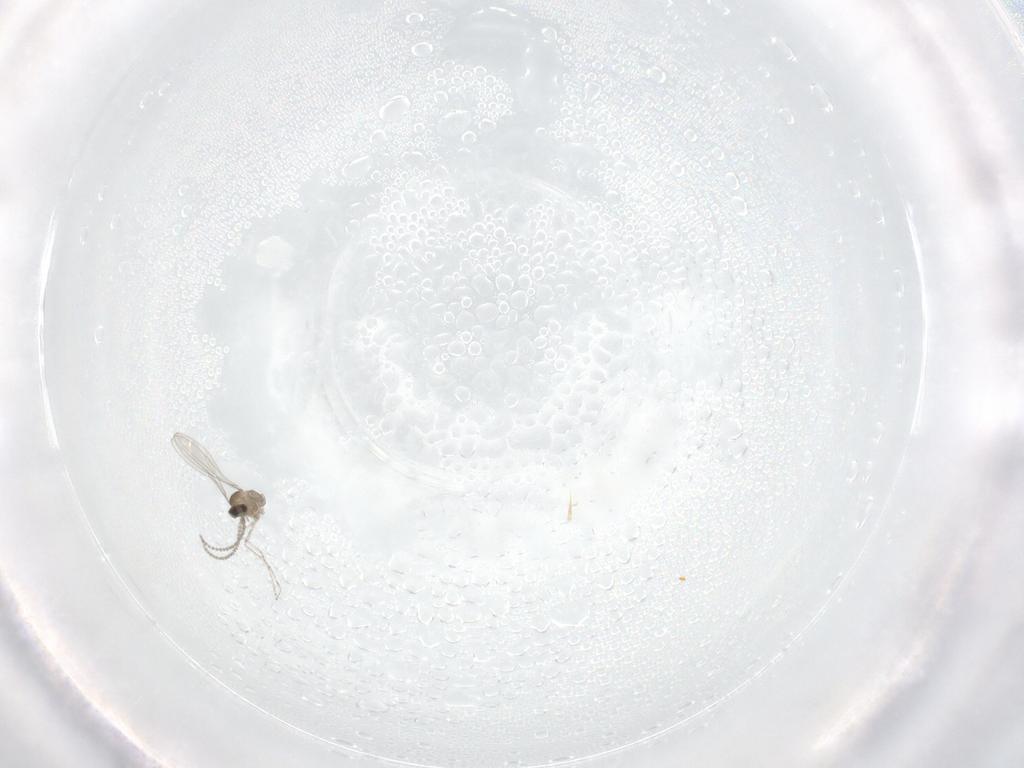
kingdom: Animalia
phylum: Arthropoda
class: Insecta
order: Diptera
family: Cecidomyiidae
